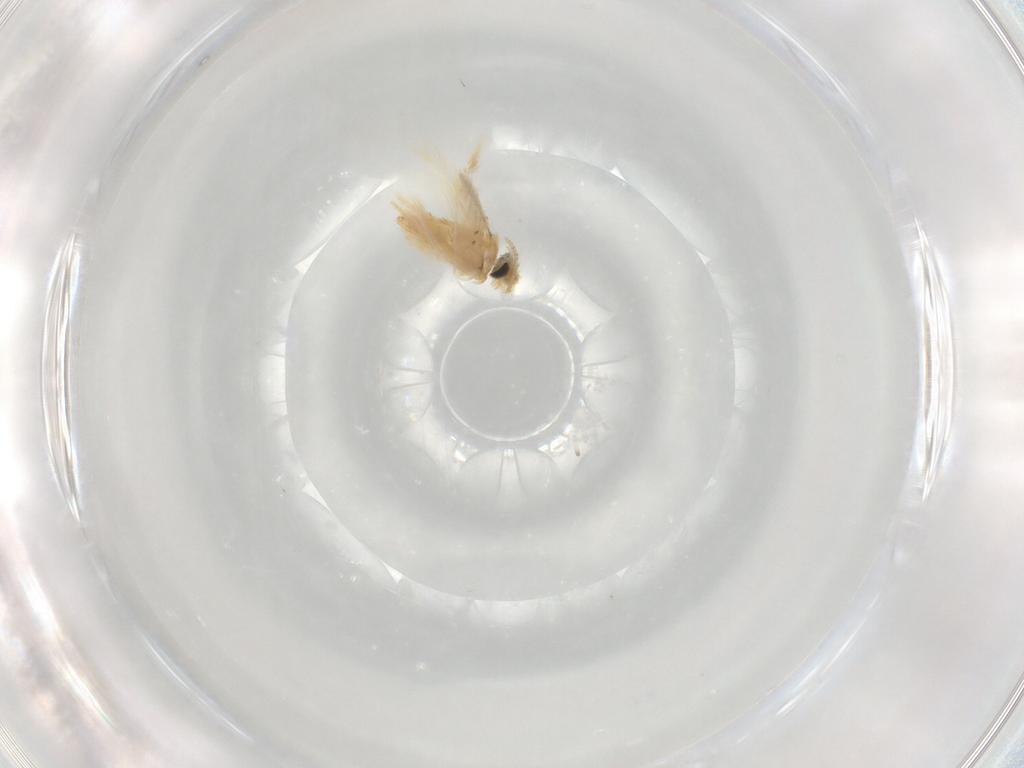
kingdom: Animalia
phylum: Arthropoda
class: Insecta
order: Lepidoptera
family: Crambidae
